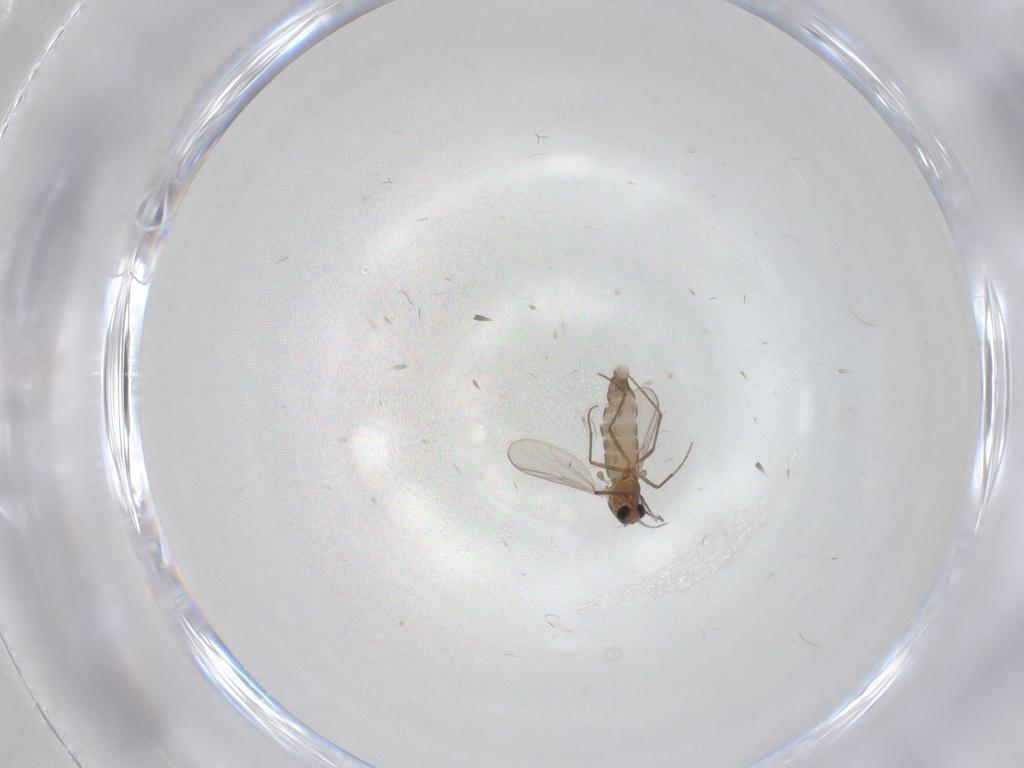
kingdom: Animalia
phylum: Arthropoda
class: Insecta
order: Diptera
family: Chironomidae
